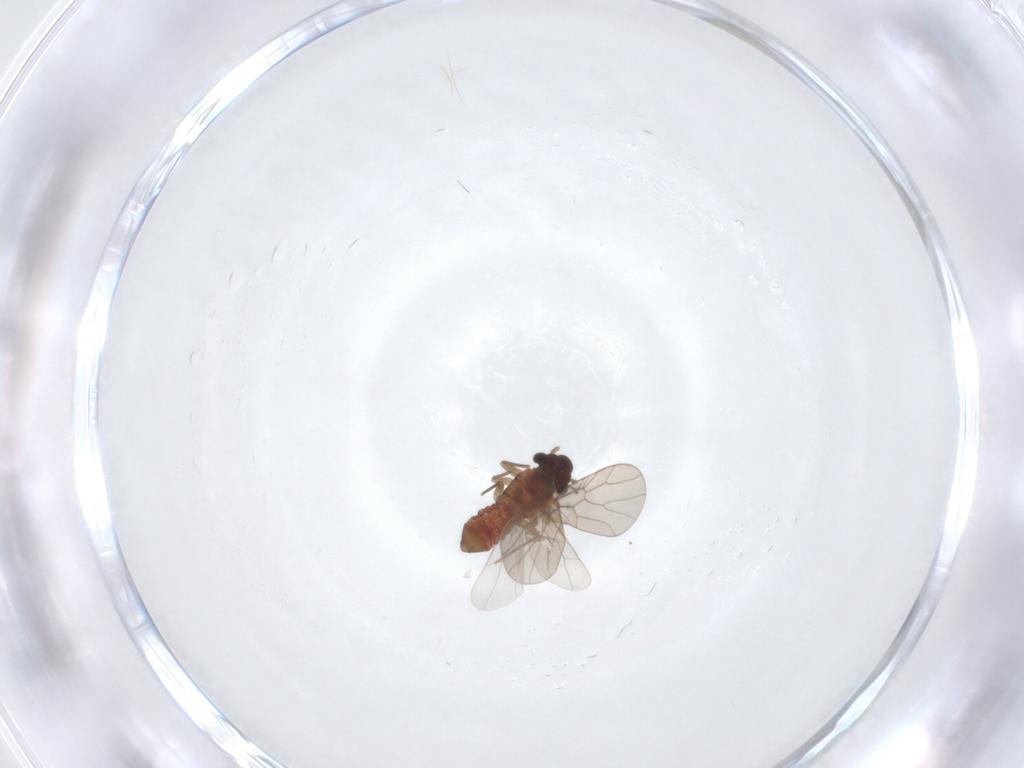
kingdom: Animalia
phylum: Arthropoda
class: Insecta
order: Psocodea
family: Lepidopsocidae
